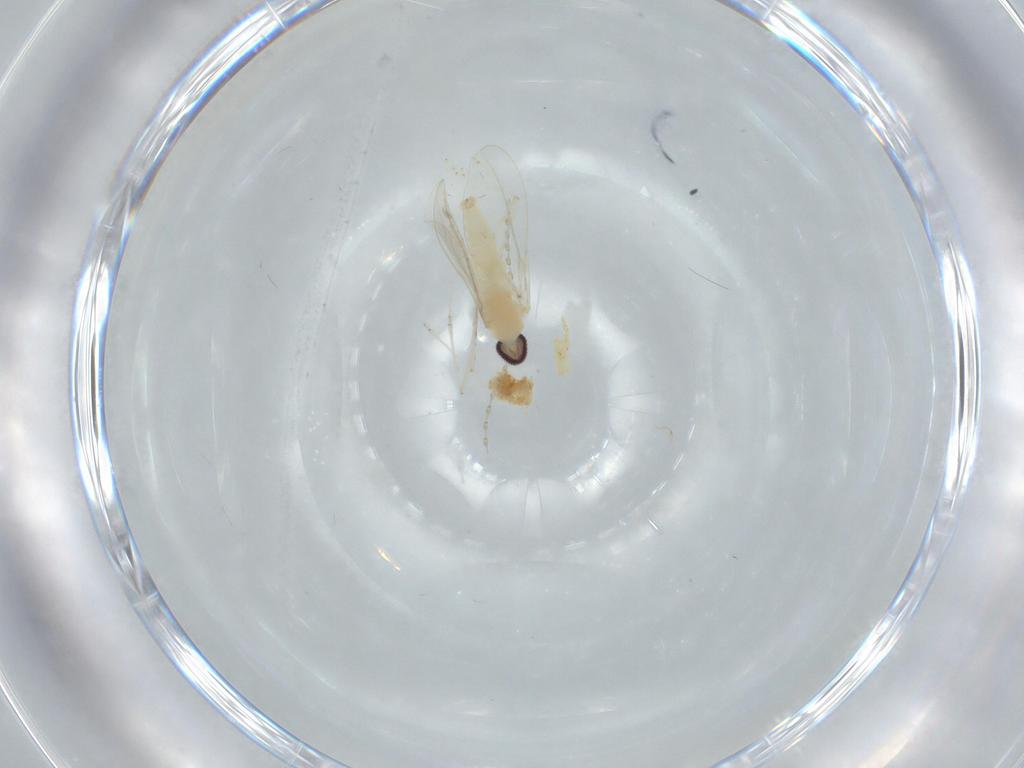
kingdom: Animalia
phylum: Arthropoda
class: Insecta
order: Diptera
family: Cecidomyiidae
